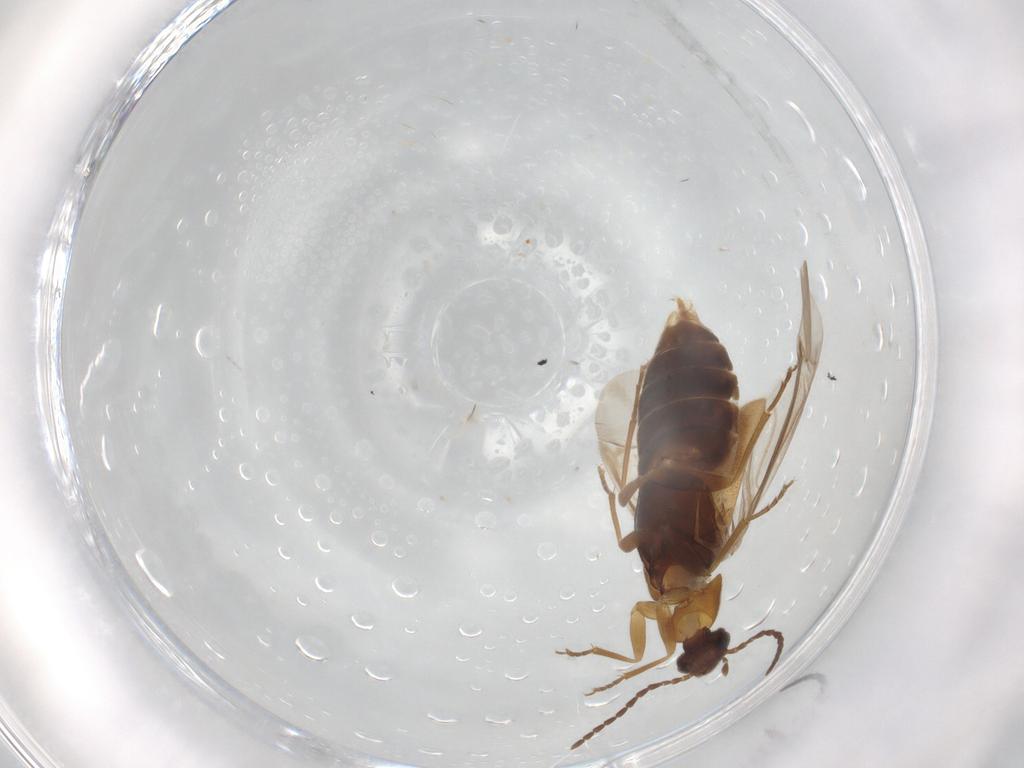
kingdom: Animalia
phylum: Arthropoda
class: Insecta
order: Coleoptera
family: Scraptiidae
